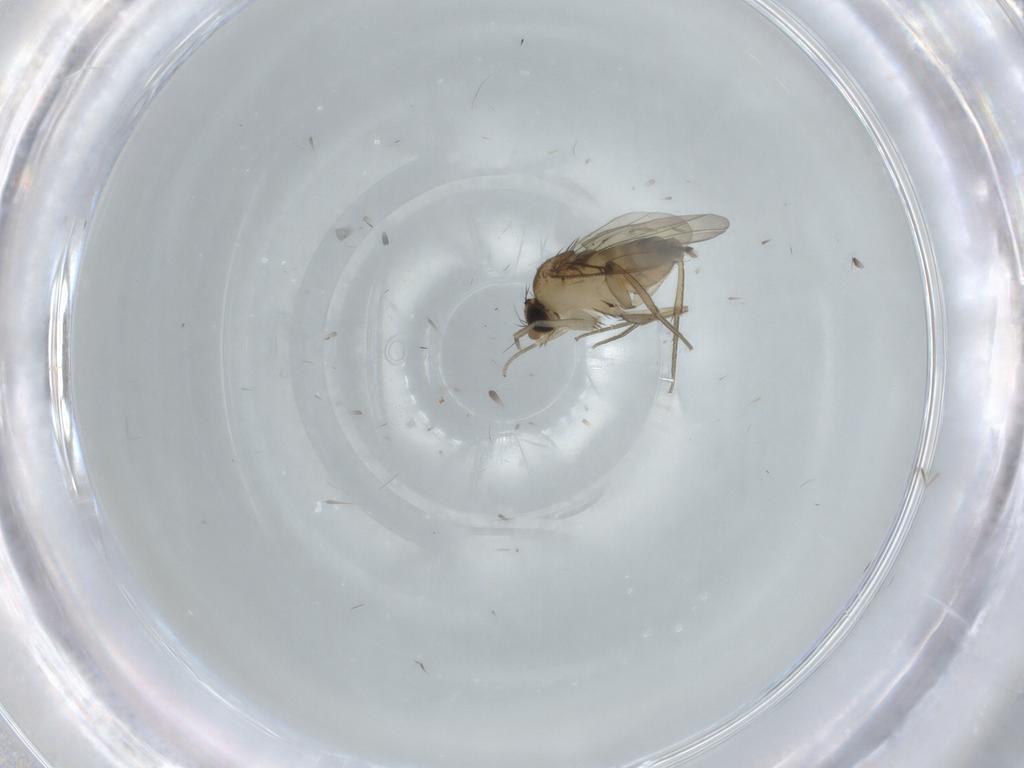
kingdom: Animalia
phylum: Arthropoda
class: Insecta
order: Diptera
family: Phoridae
